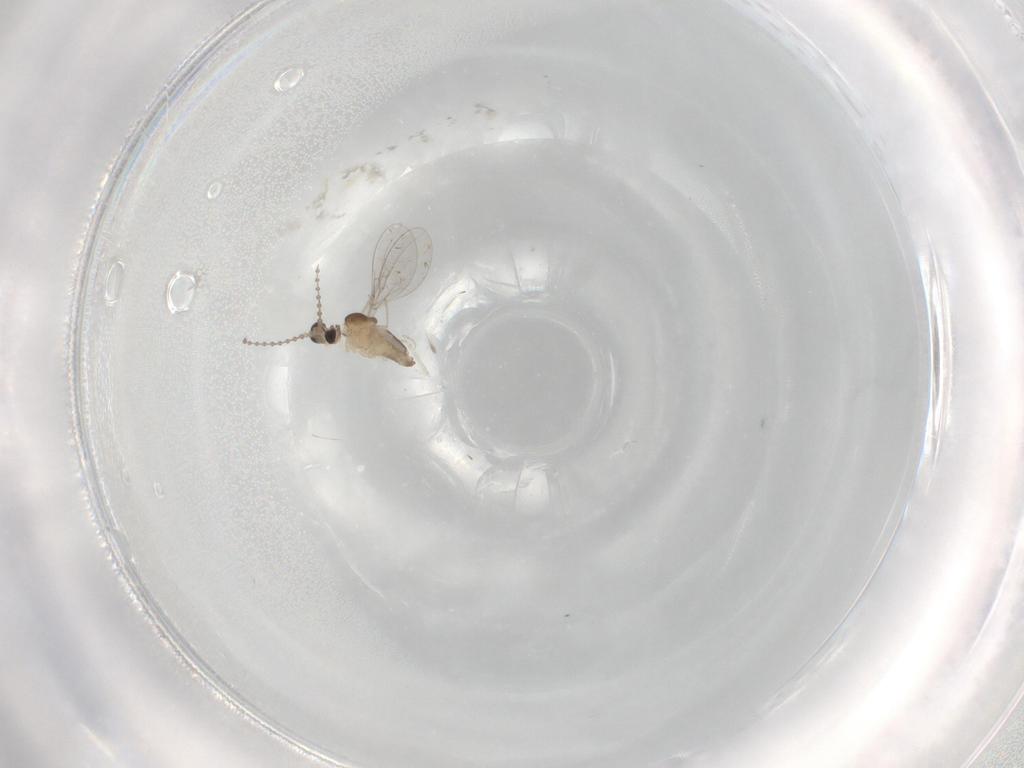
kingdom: Animalia
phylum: Arthropoda
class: Insecta
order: Diptera
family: Cecidomyiidae
